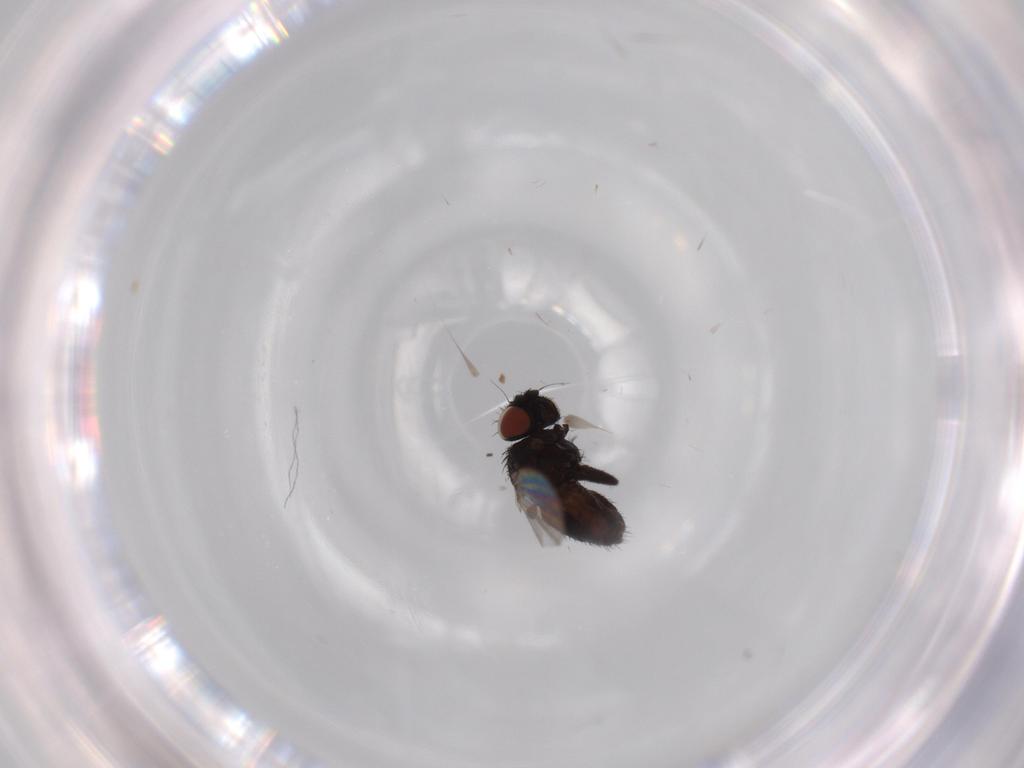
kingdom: Animalia
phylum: Arthropoda
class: Insecta
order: Diptera
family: Milichiidae
